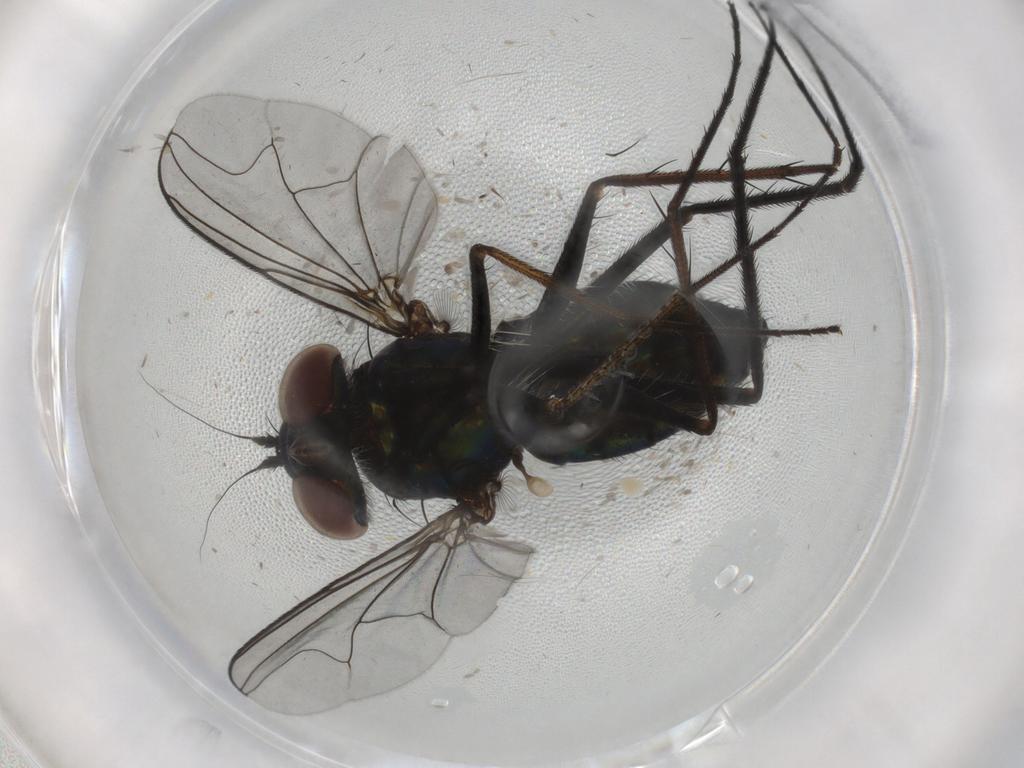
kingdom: Animalia
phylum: Arthropoda
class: Insecta
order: Diptera
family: Dolichopodidae
